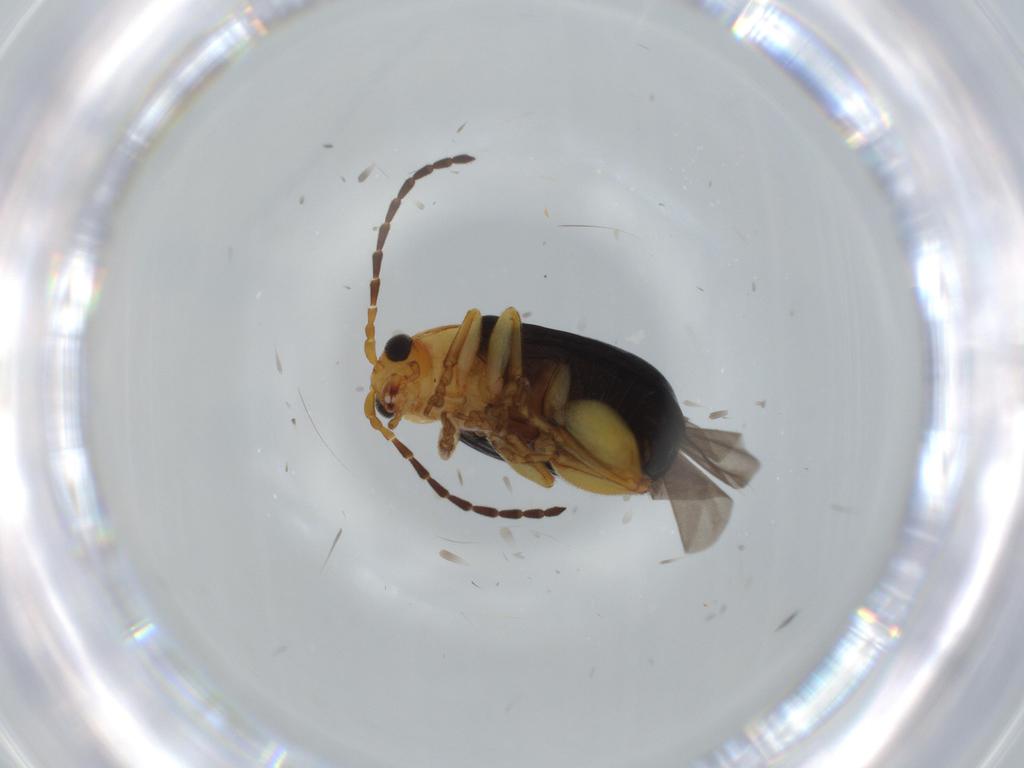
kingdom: Animalia
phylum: Arthropoda
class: Insecta
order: Coleoptera
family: Chrysomelidae
